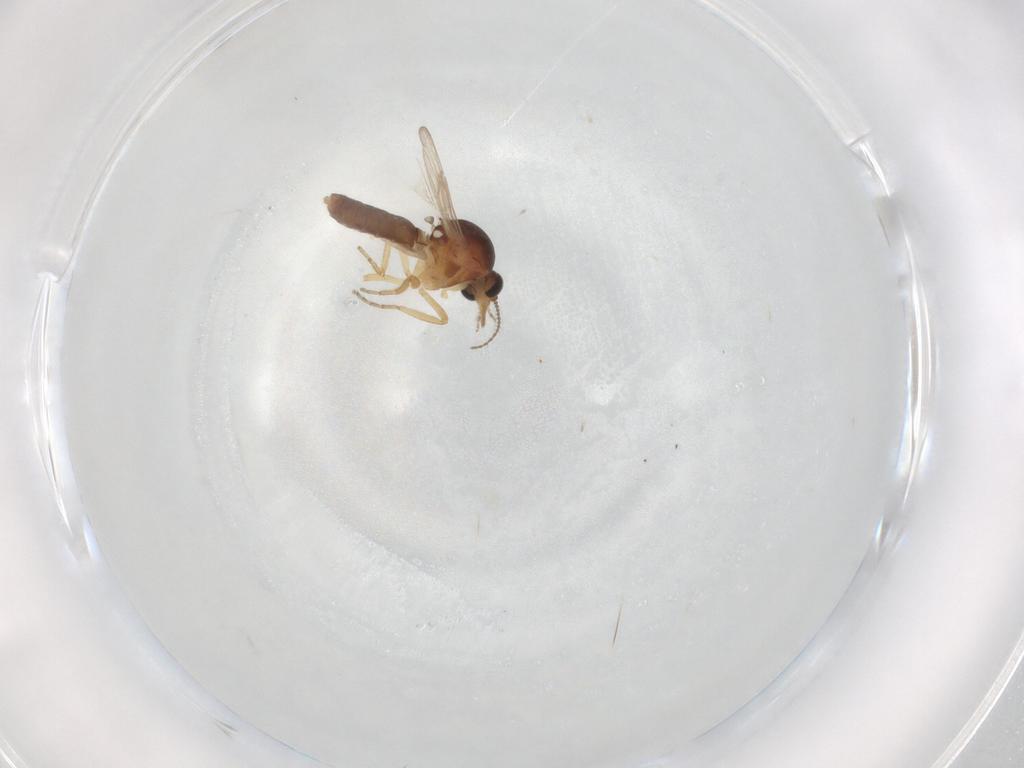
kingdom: Animalia
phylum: Arthropoda
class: Insecta
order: Diptera
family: Ceratopogonidae
